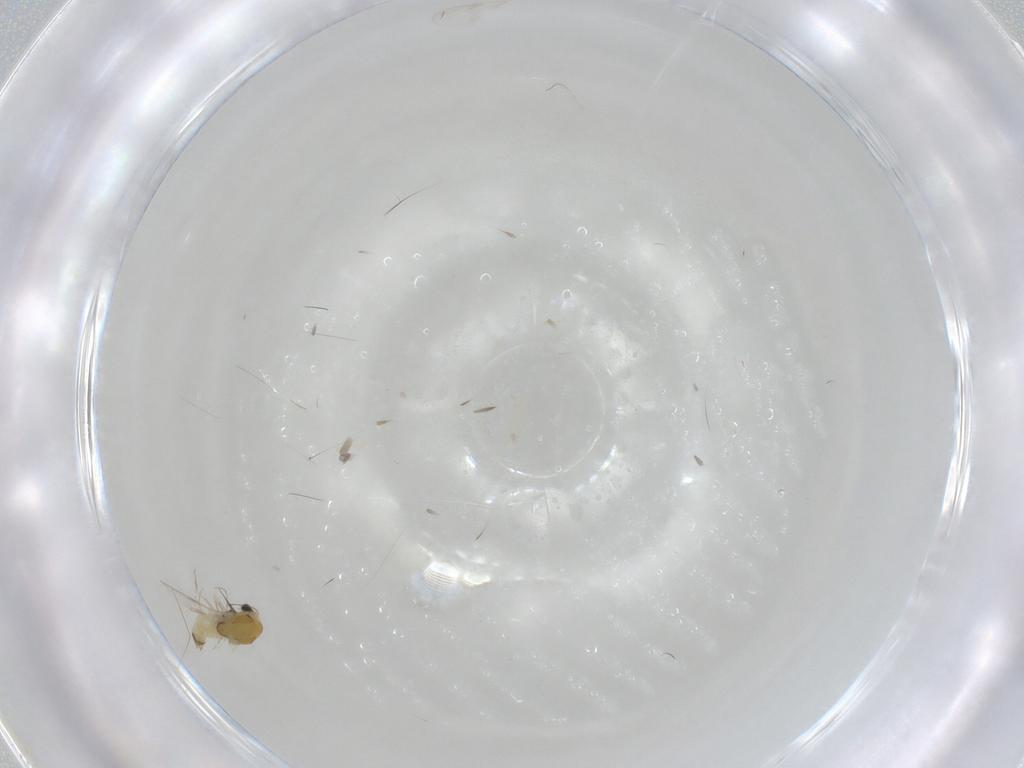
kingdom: Animalia
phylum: Arthropoda
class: Insecta
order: Diptera
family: Chironomidae
